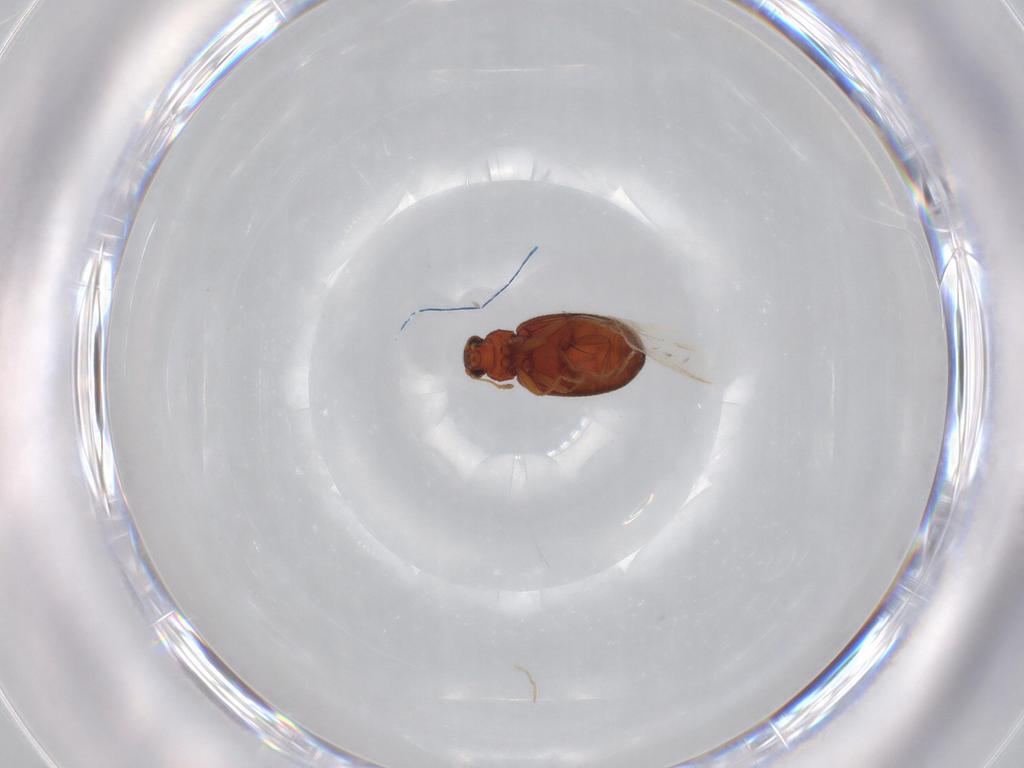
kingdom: Animalia
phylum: Arthropoda
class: Insecta
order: Coleoptera
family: Latridiidae
